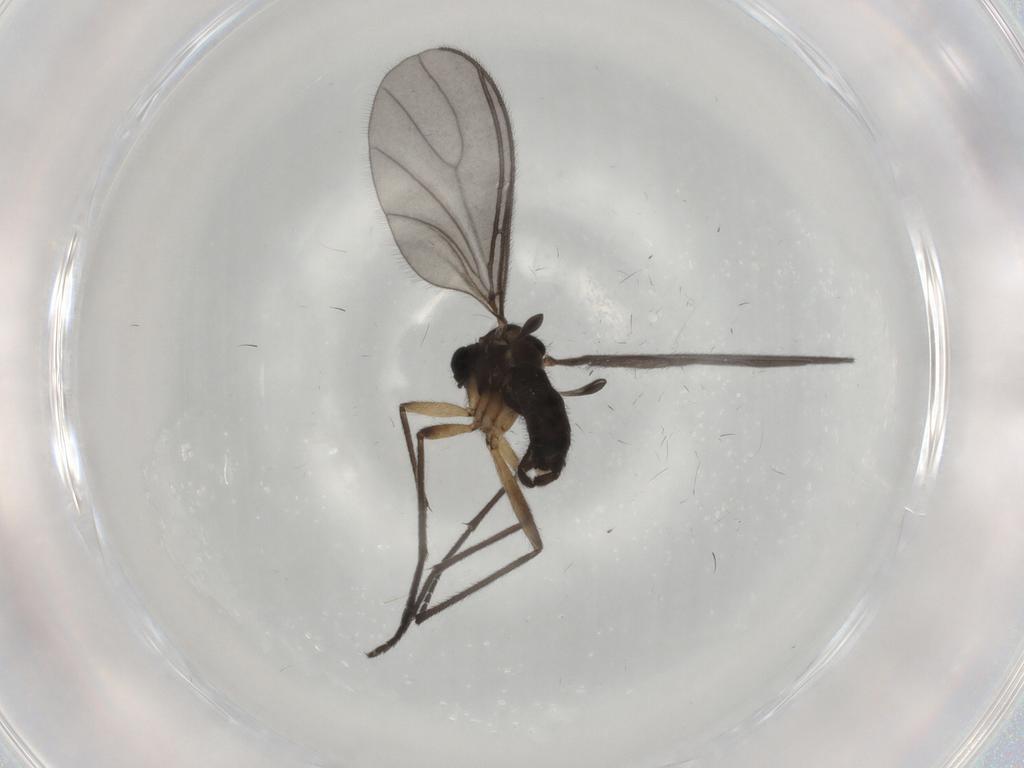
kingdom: Animalia
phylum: Arthropoda
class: Insecta
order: Diptera
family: Sciaridae
